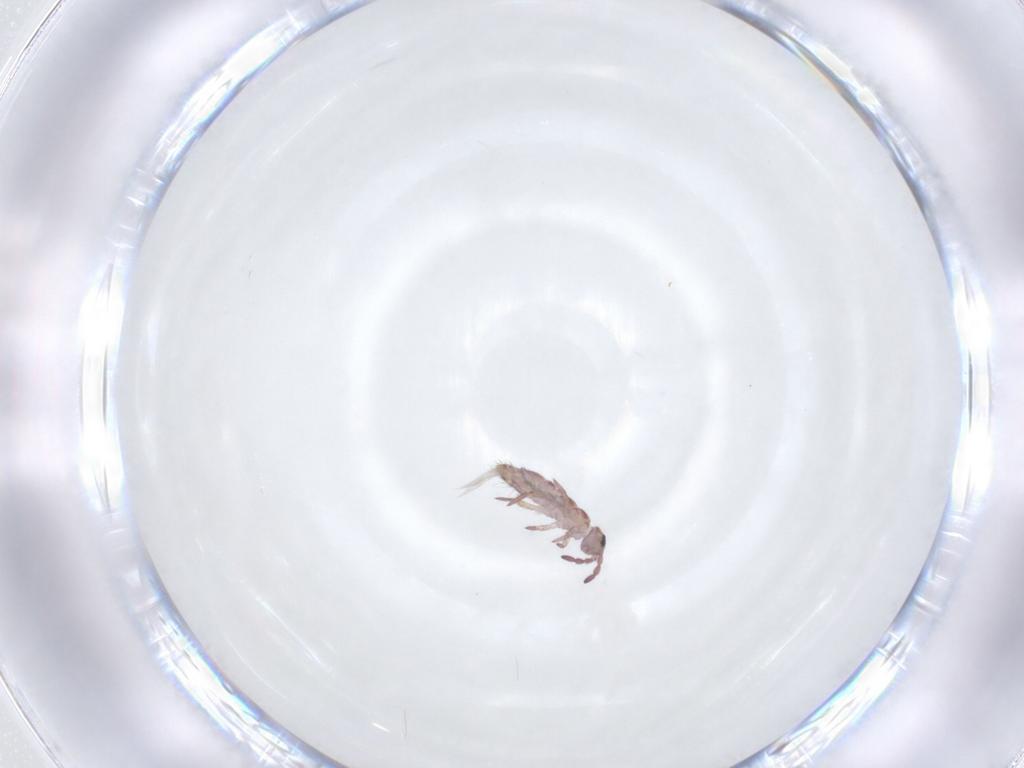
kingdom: Animalia
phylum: Arthropoda
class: Collembola
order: Entomobryomorpha
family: Isotomidae
